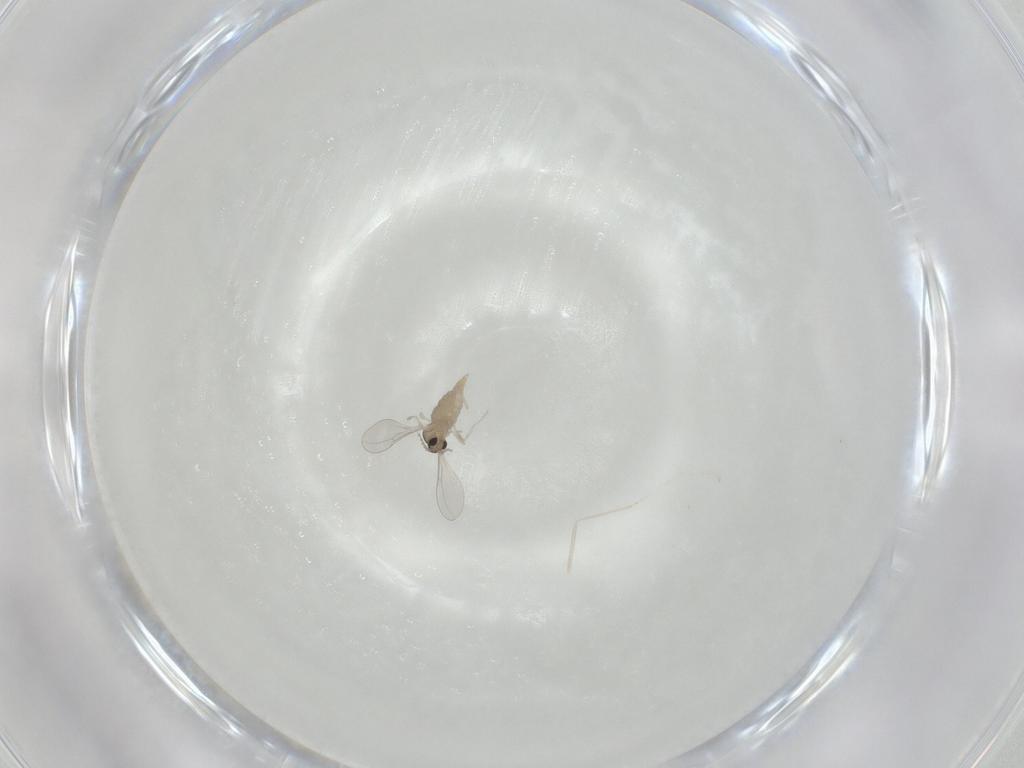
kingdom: Animalia
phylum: Arthropoda
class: Insecta
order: Diptera
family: Cecidomyiidae
